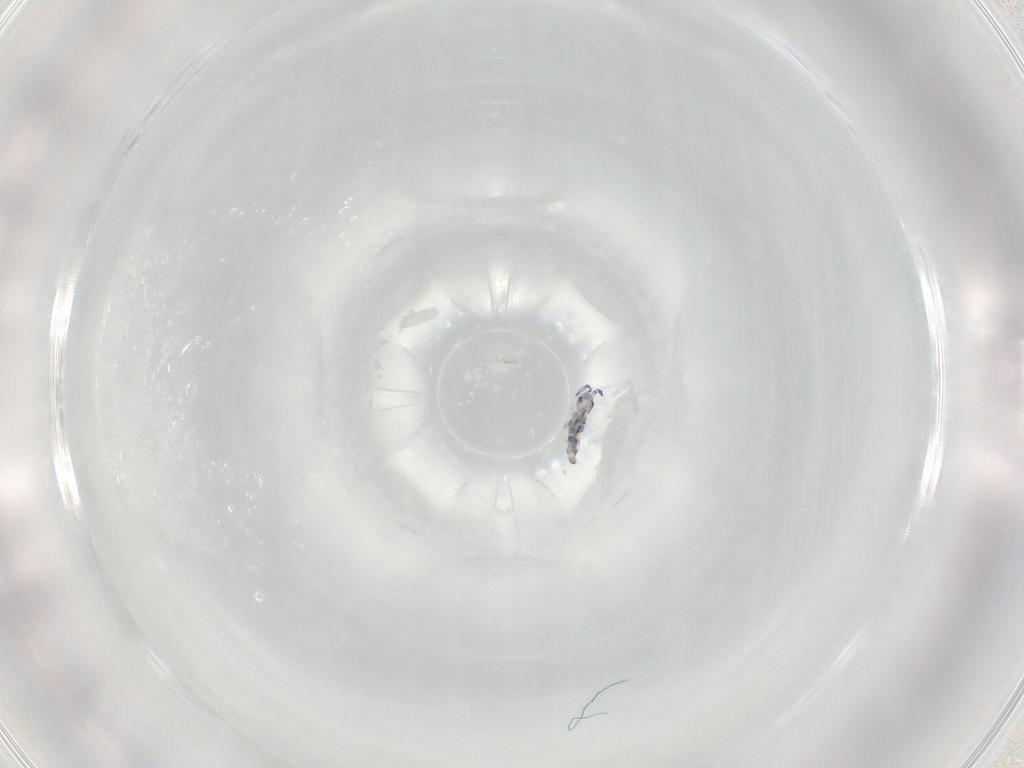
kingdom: Animalia
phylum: Arthropoda
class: Collembola
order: Entomobryomorpha
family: Entomobryidae
